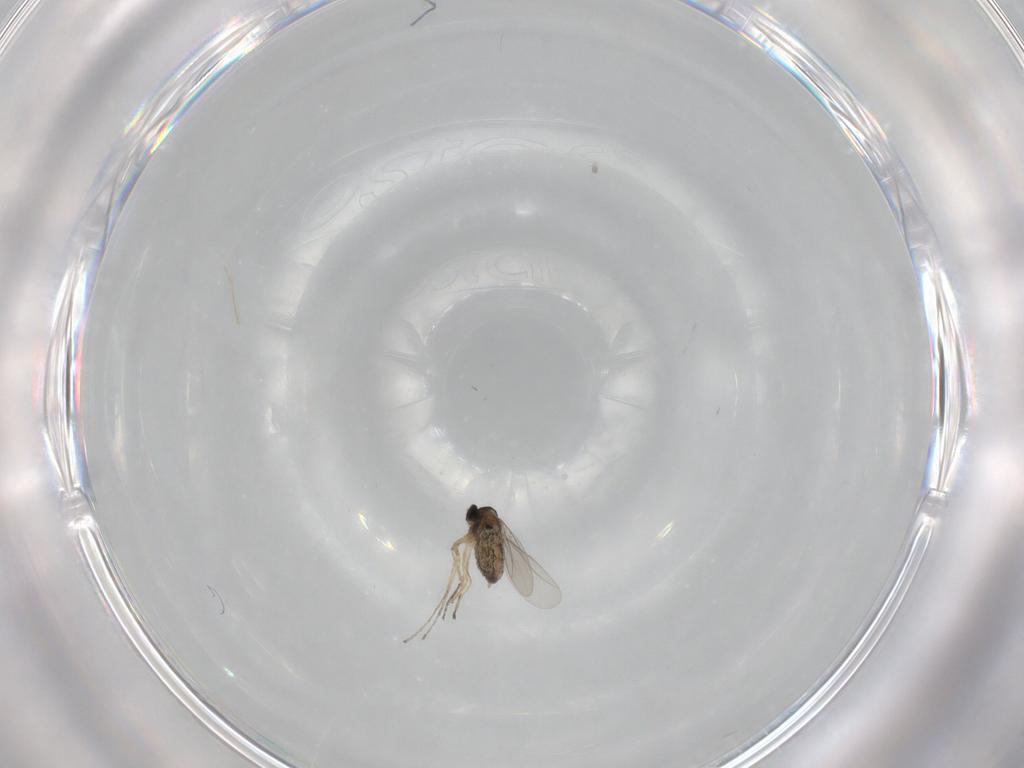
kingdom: Animalia
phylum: Arthropoda
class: Insecta
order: Diptera
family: Cecidomyiidae
